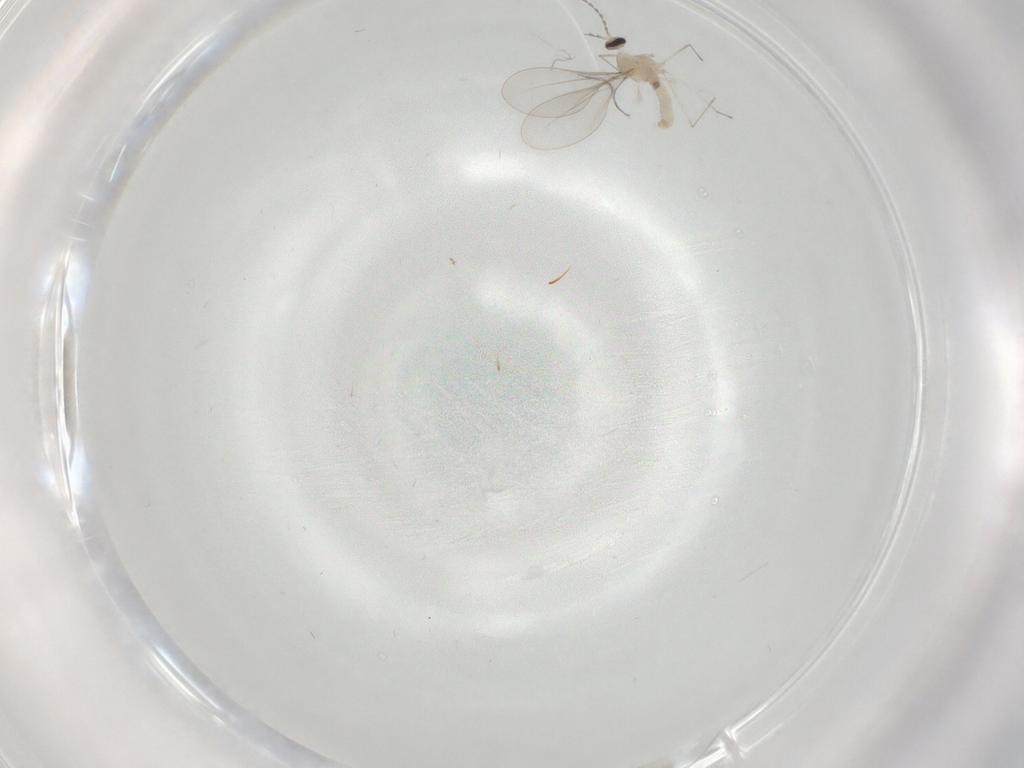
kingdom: Animalia
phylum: Arthropoda
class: Insecta
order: Diptera
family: Cecidomyiidae
